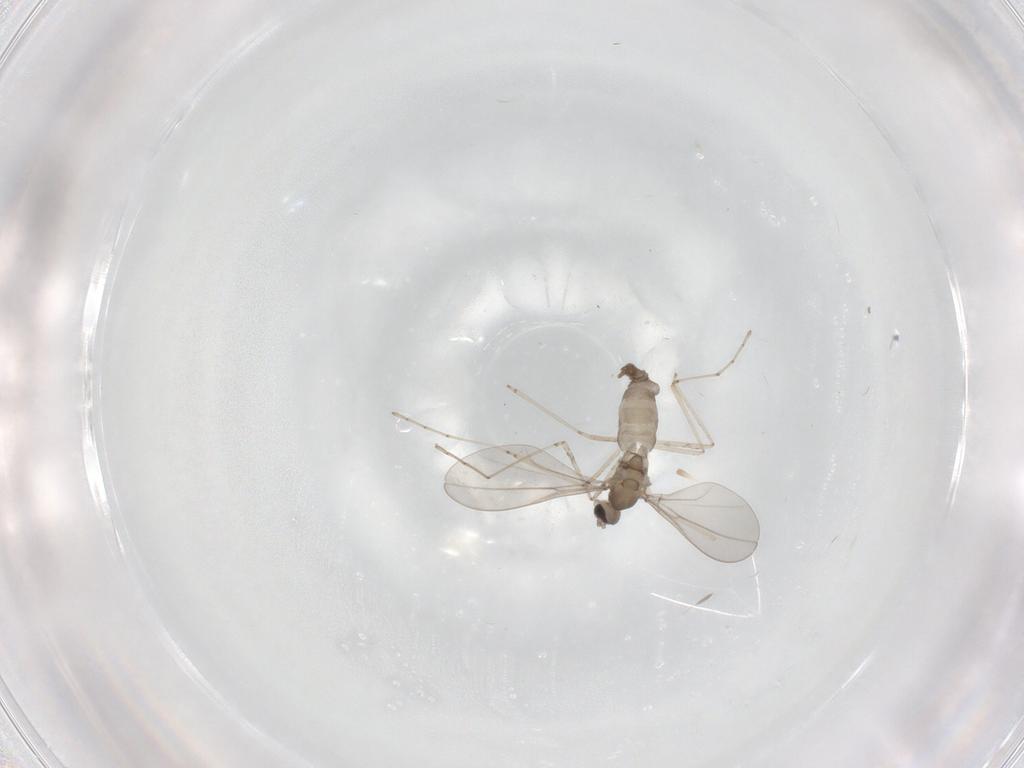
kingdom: Animalia
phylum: Arthropoda
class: Insecta
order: Diptera
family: Cecidomyiidae
